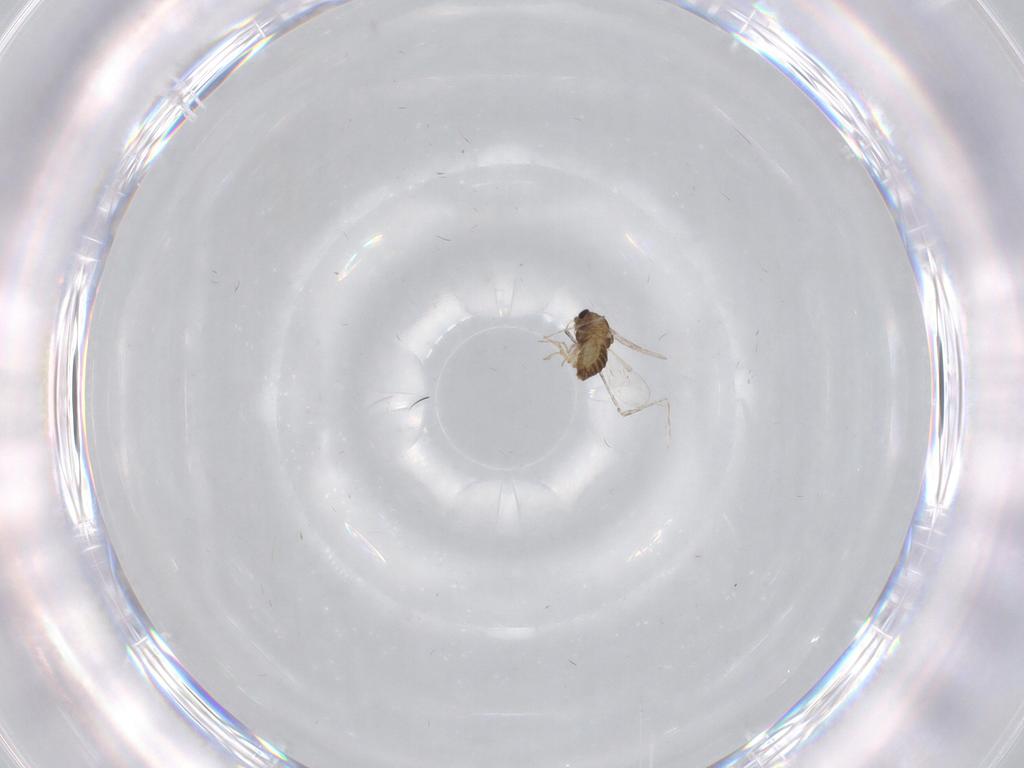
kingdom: Animalia
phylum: Arthropoda
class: Insecta
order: Diptera
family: Chironomidae
